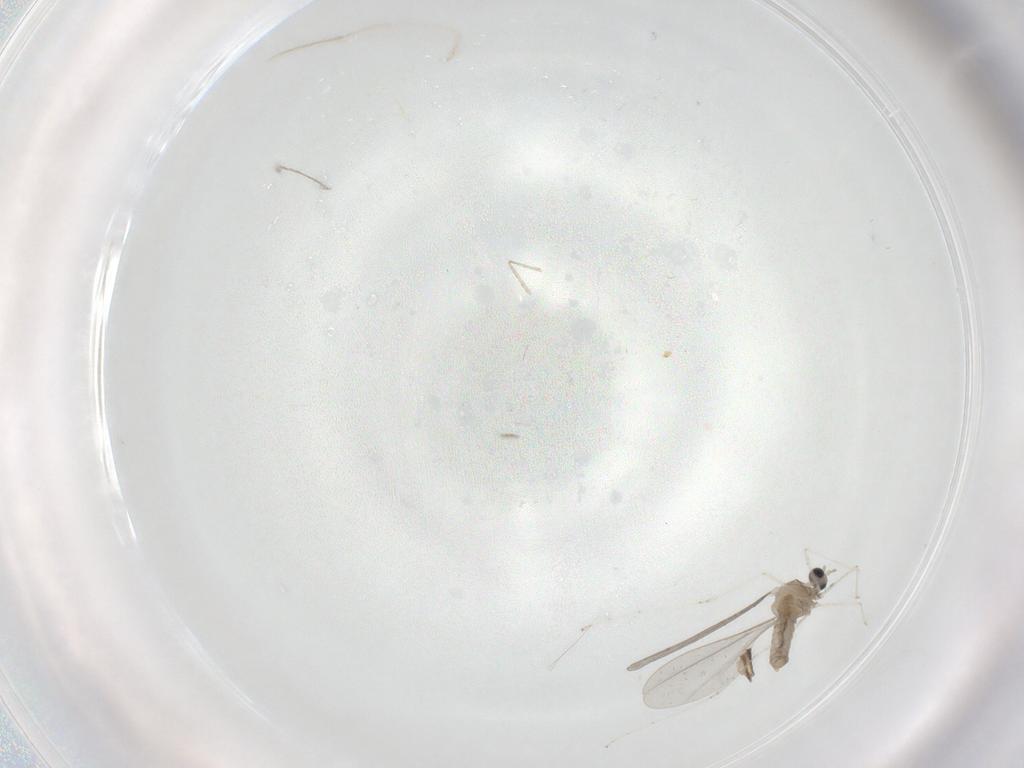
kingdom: Animalia
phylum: Arthropoda
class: Insecta
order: Diptera
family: Cecidomyiidae
